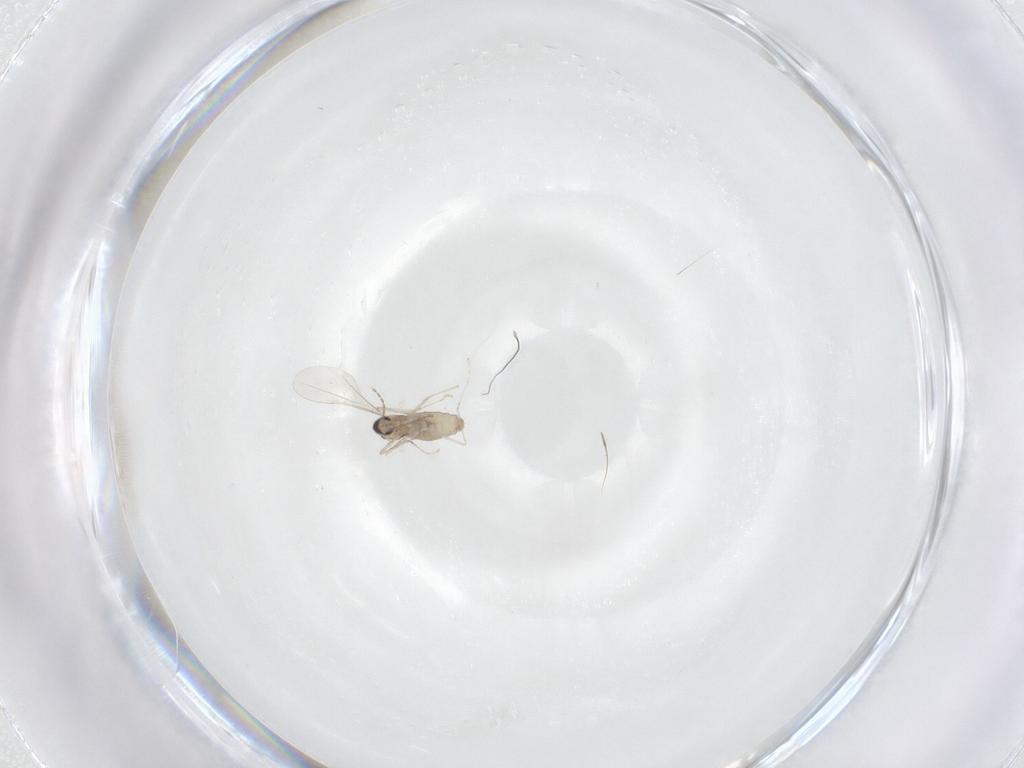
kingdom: Animalia
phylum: Arthropoda
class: Insecta
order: Diptera
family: Cecidomyiidae
